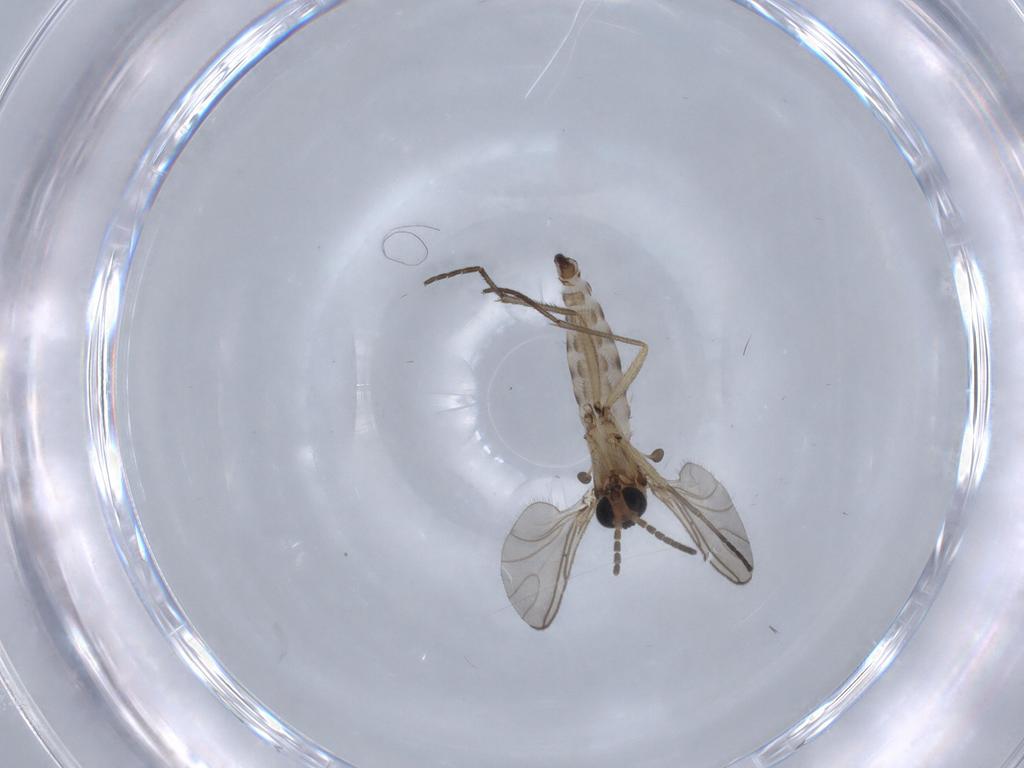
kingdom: Animalia
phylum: Arthropoda
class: Insecta
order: Diptera
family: Sciaridae
